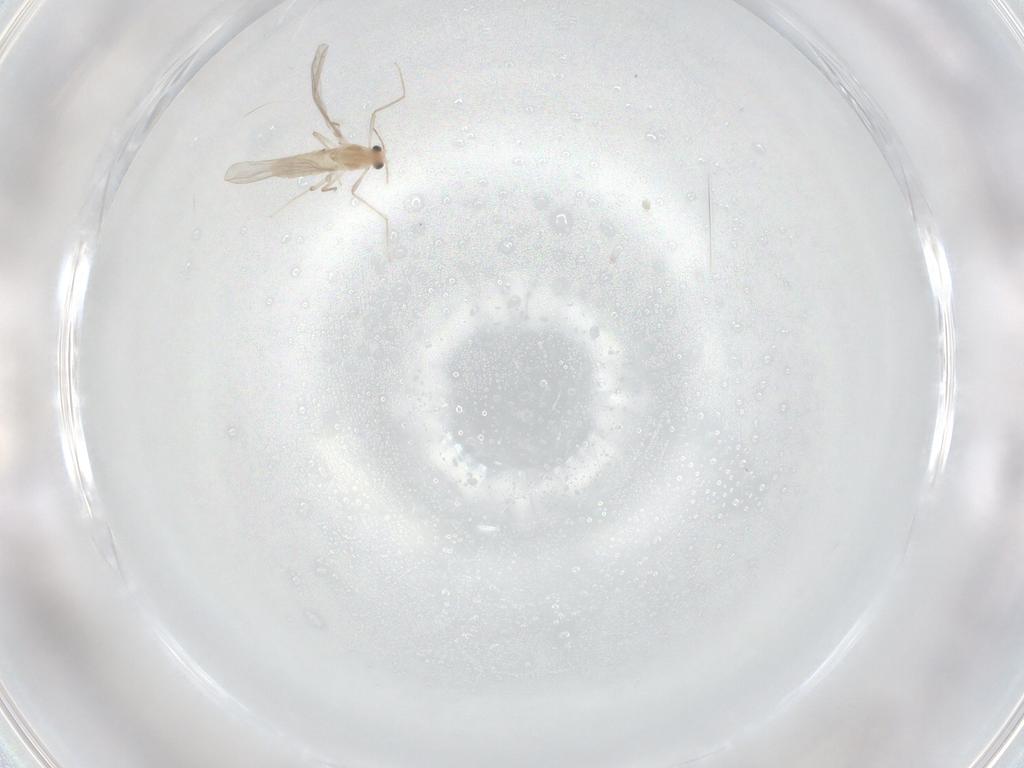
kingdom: Animalia
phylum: Arthropoda
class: Insecta
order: Diptera
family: Chironomidae
